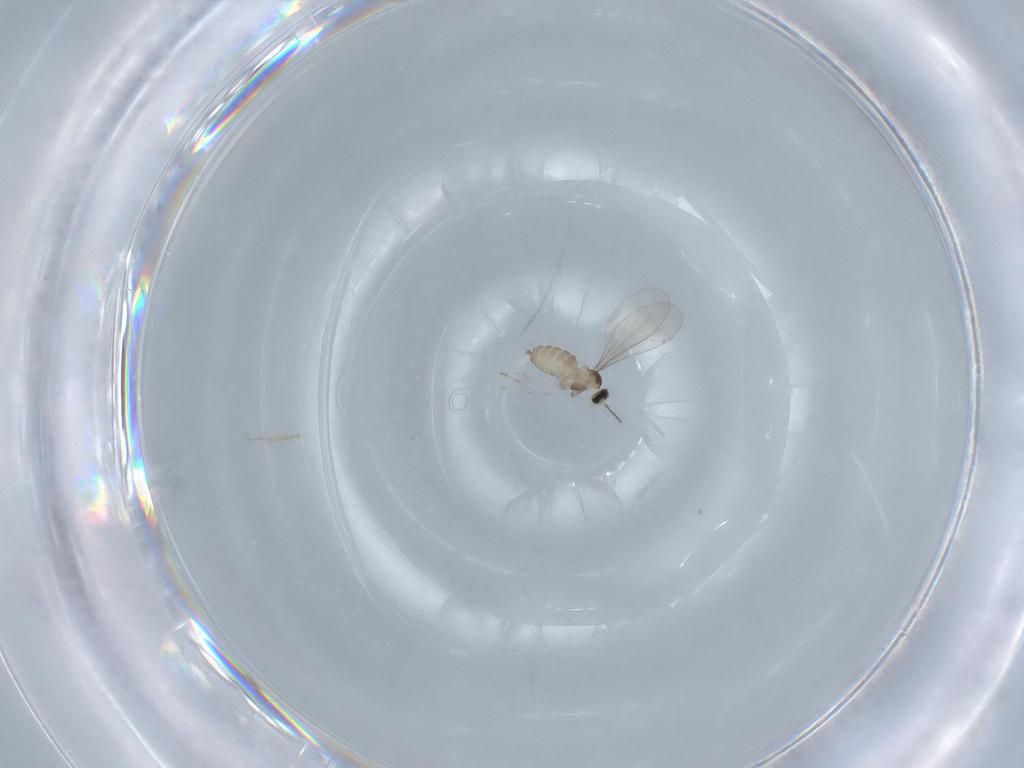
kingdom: Animalia
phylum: Arthropoda
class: Insecta
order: Diptera
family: Cecidomyiidae
